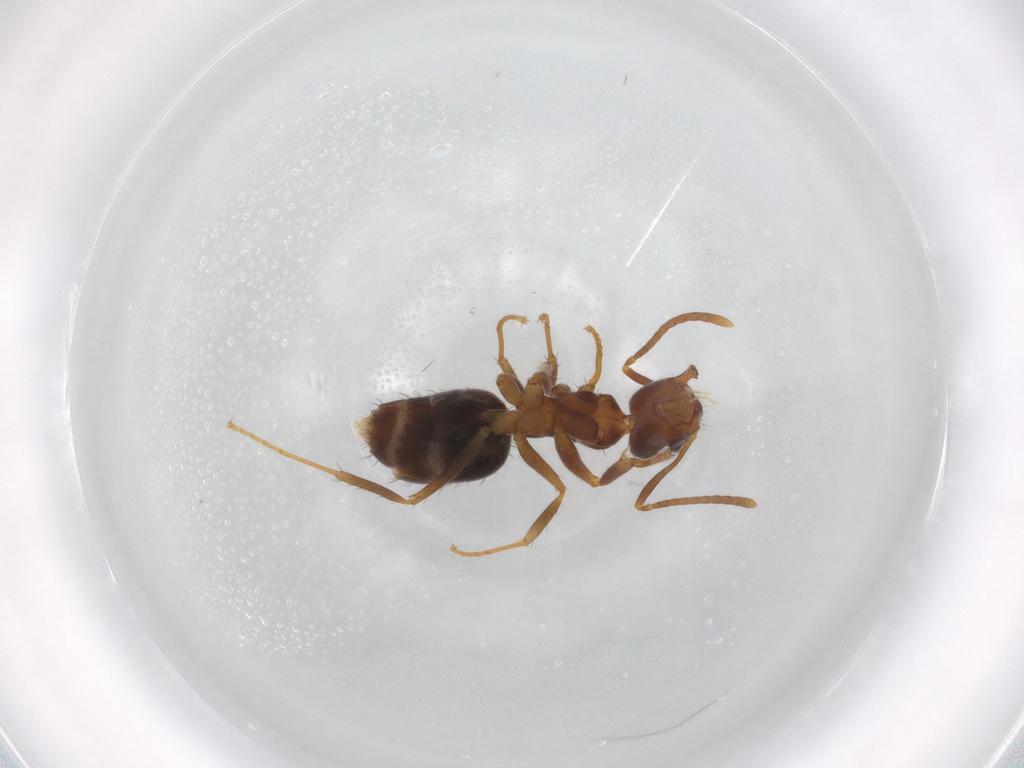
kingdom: Animalia
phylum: Arthropoda
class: Insecta
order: Hymenoptera
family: Formicidae
